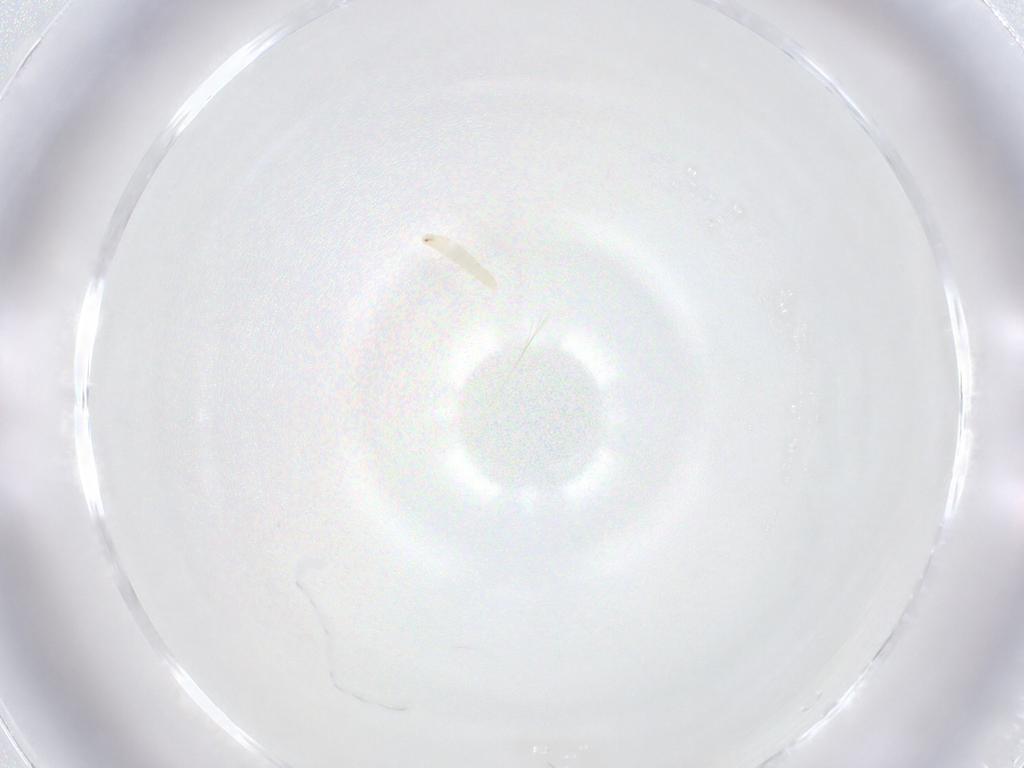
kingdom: Animalia
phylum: Arthropoda
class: Insecta
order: Diptera
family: Tachinidae
